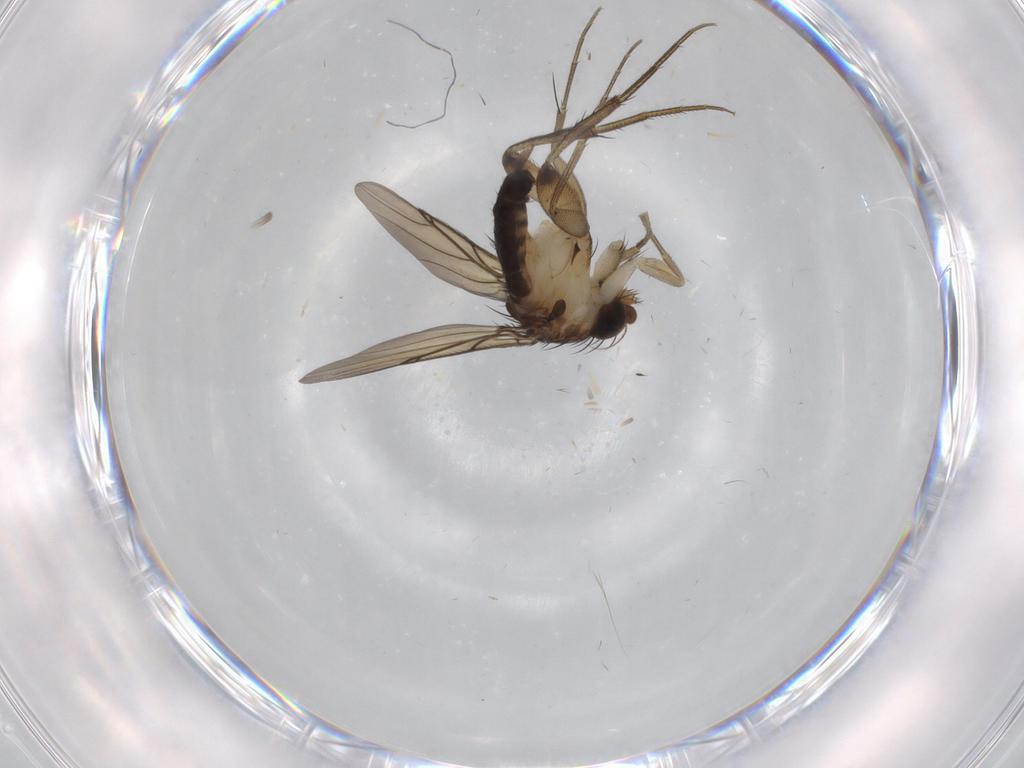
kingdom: Animalia
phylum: Arthropoda
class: Insecta
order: Diptera
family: Phoridae
